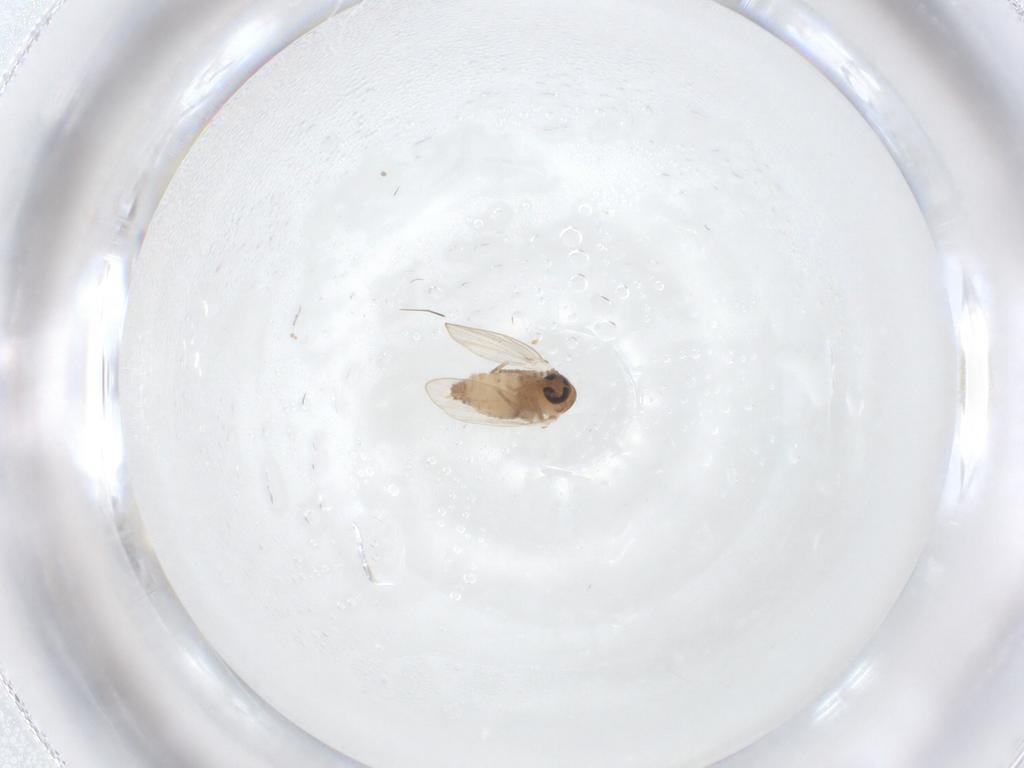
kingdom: Animalia
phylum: Arthropoda
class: Insecta
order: Diptera
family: Psychodidae
